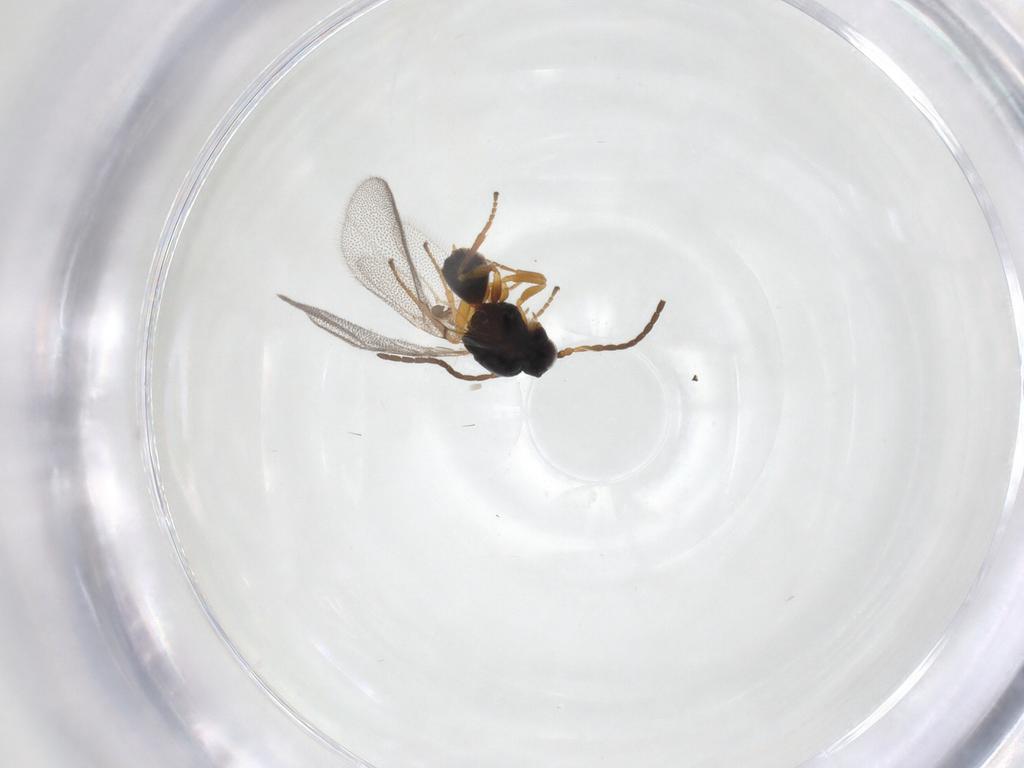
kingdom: Animalia
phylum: Arthropoda
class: Insecta
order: Hymenoptera
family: Cynipidae
